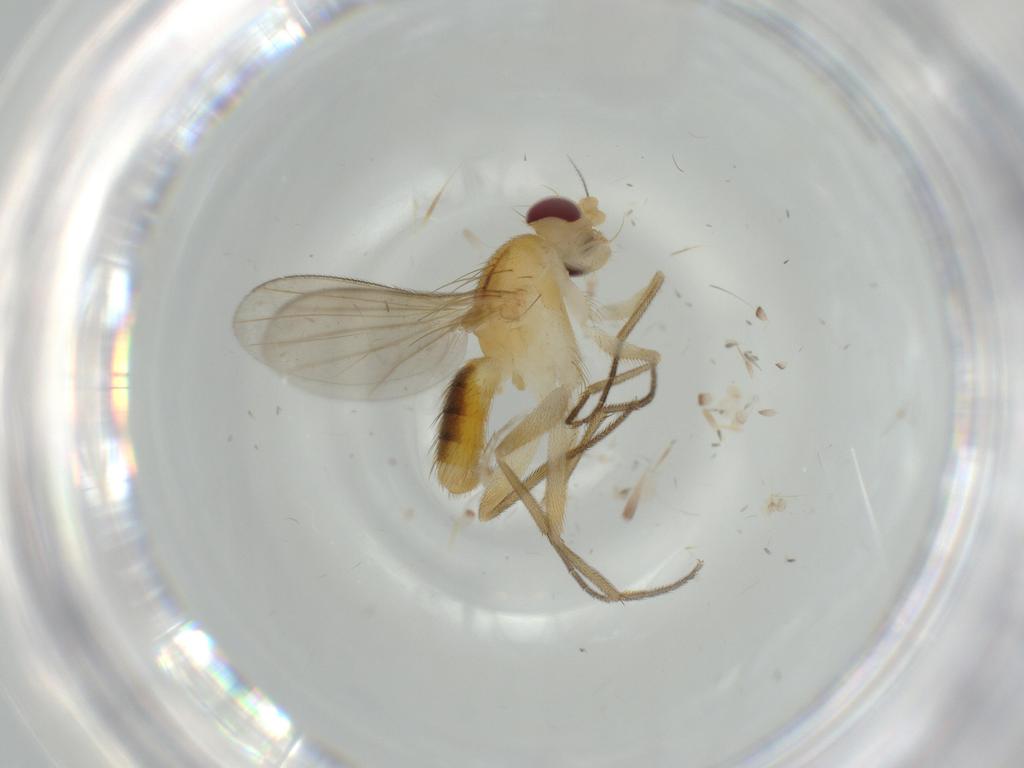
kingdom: Animalia
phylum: Arthropoda
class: Insecta
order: Diptera
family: Clusiidae
